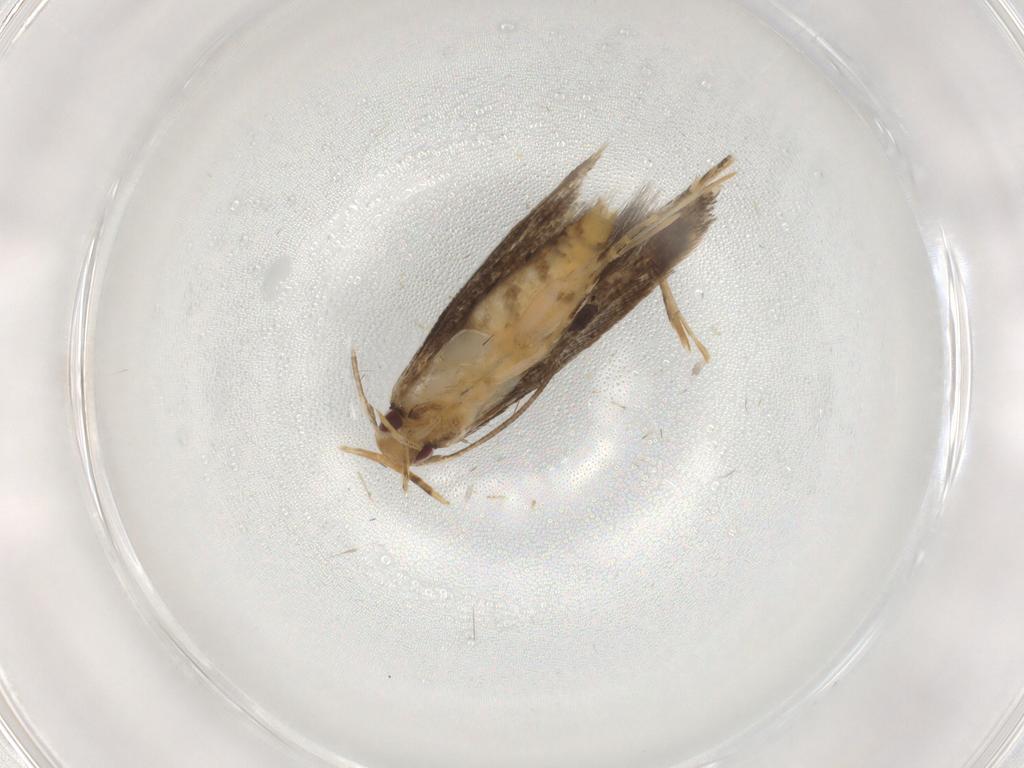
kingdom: Animalia
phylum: Arthropoda
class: Insecta
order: Lepidoptera
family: Momphidae
